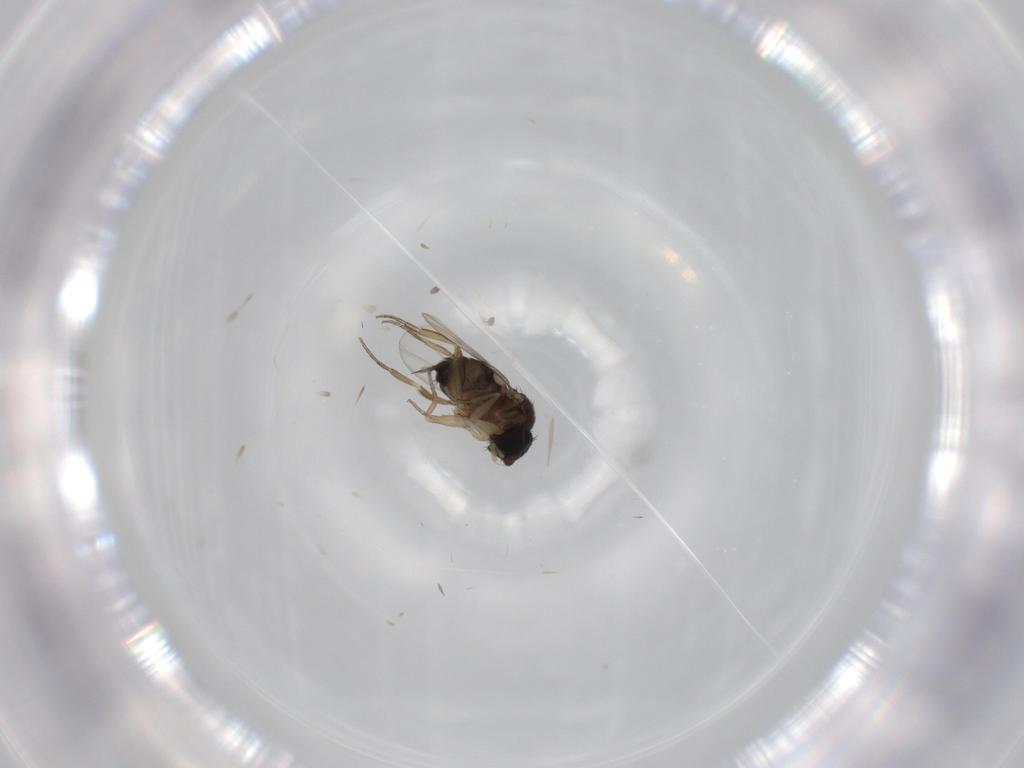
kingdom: Animalia
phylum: Arthropoda
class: Insecta
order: Diptera
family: Cecidomyiidae
